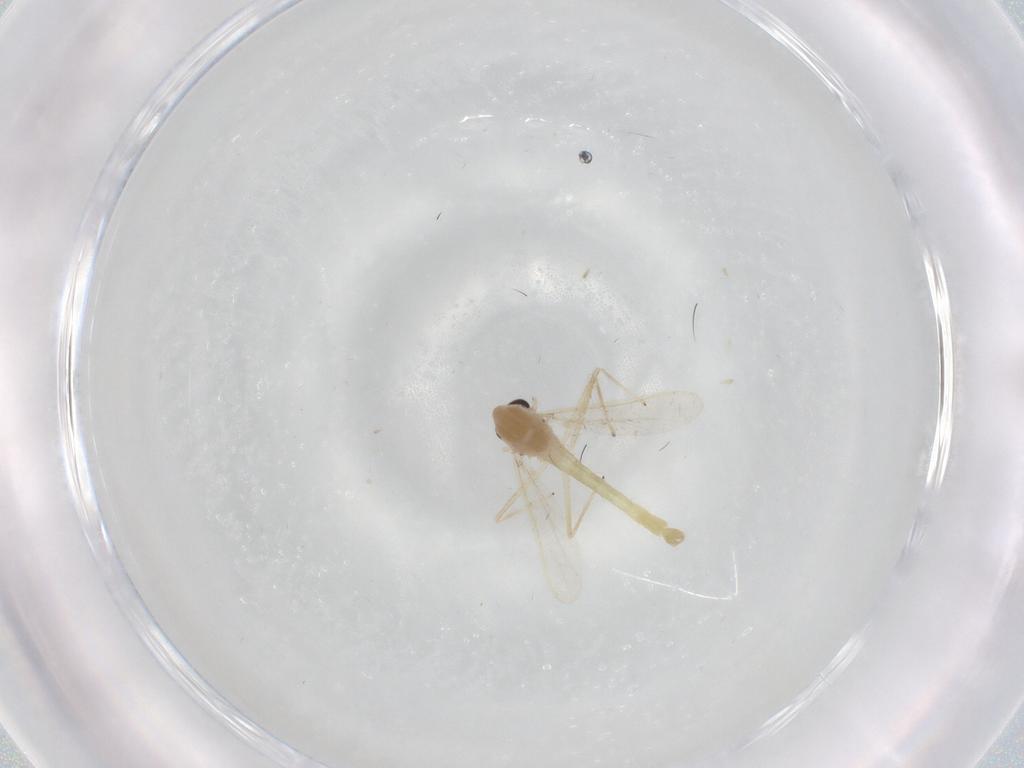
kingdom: Animalia
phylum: Arthropoda
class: Insecta
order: Diptera
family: Chironomidae
